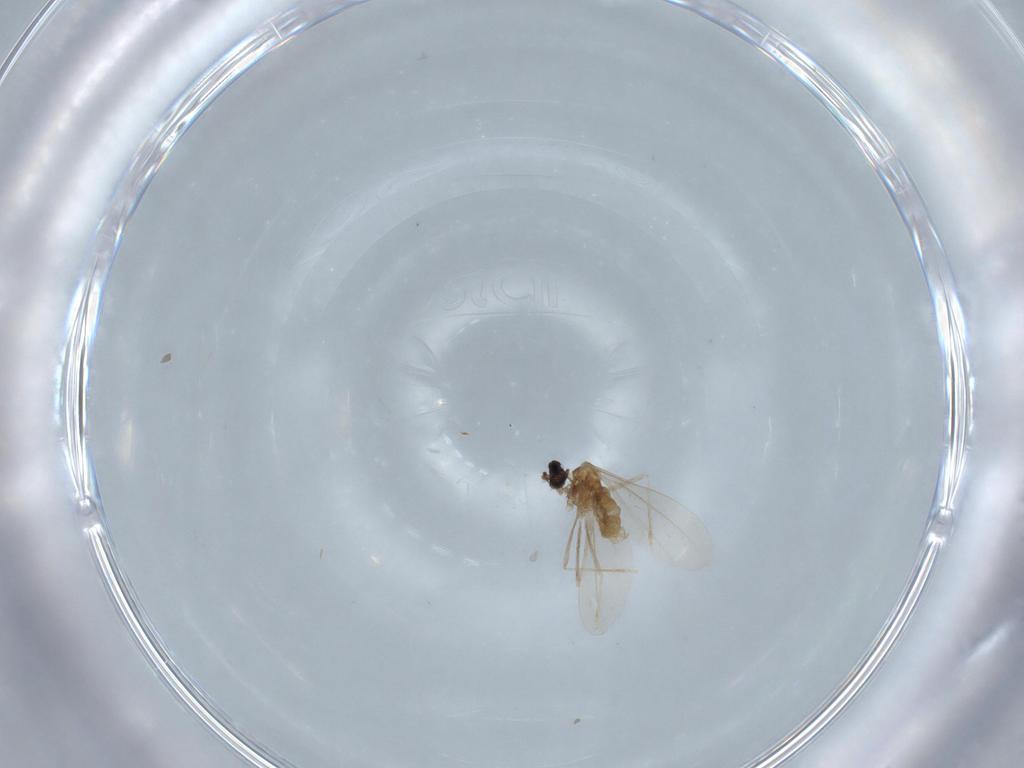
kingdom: Animalia
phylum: Arthropoda
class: Insecta
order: Diptera
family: Cecidomyiidae
